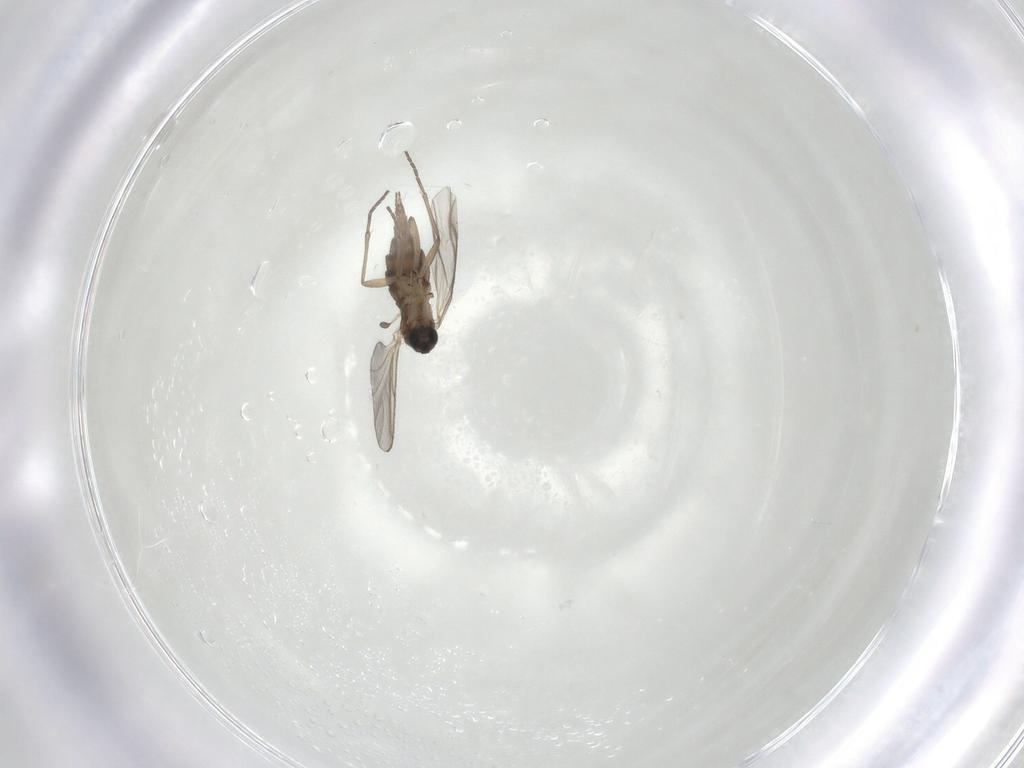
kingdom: Animalia
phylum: Arthropoda
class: Insecta
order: Diptera
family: Sciaridae
